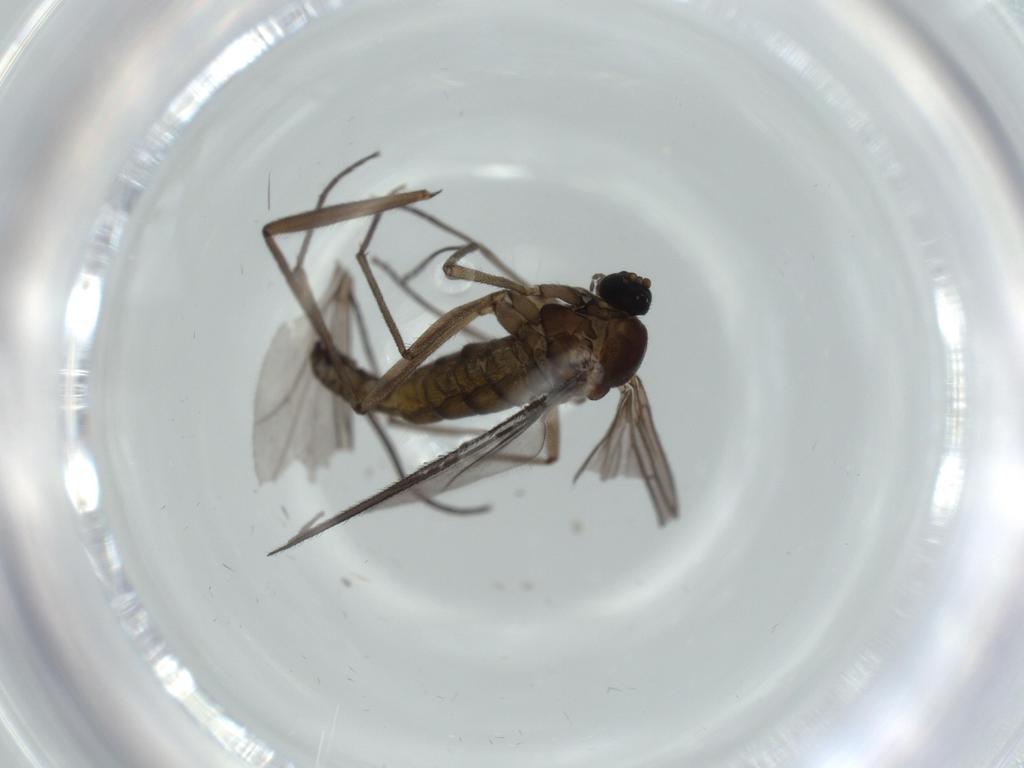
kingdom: Animalia
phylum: Arthropoda
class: Insecta
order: Diptera
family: Sciaridae
